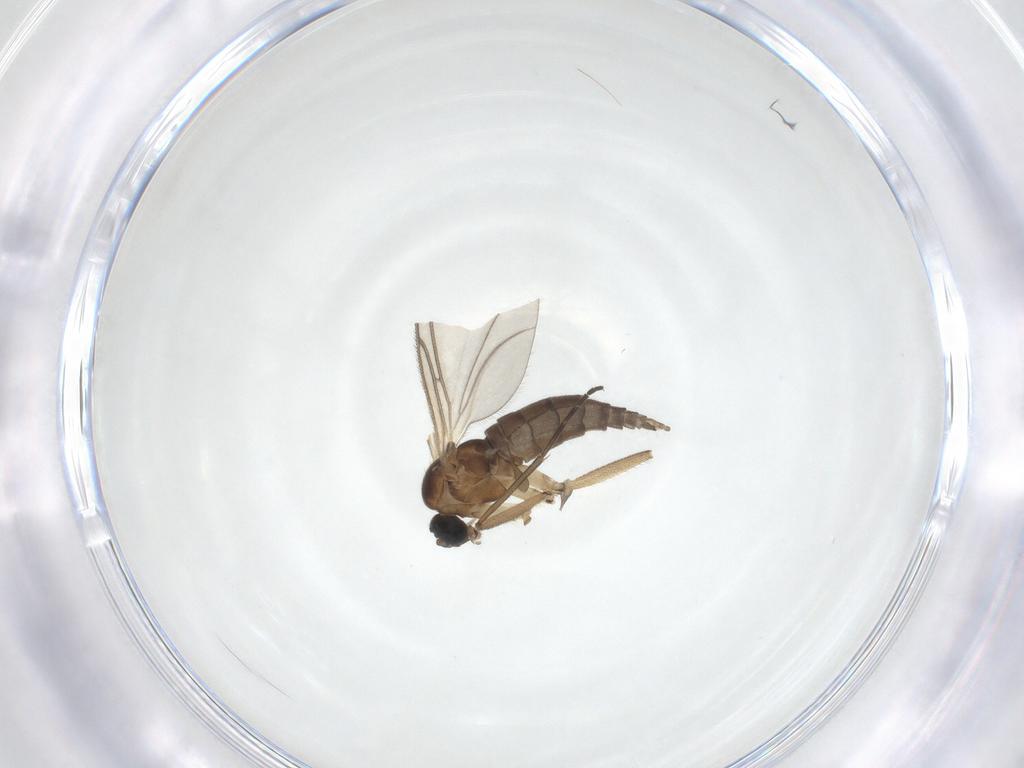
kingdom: Animalia
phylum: Arthropoda
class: Insecta
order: Diptera
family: Sciaridae
